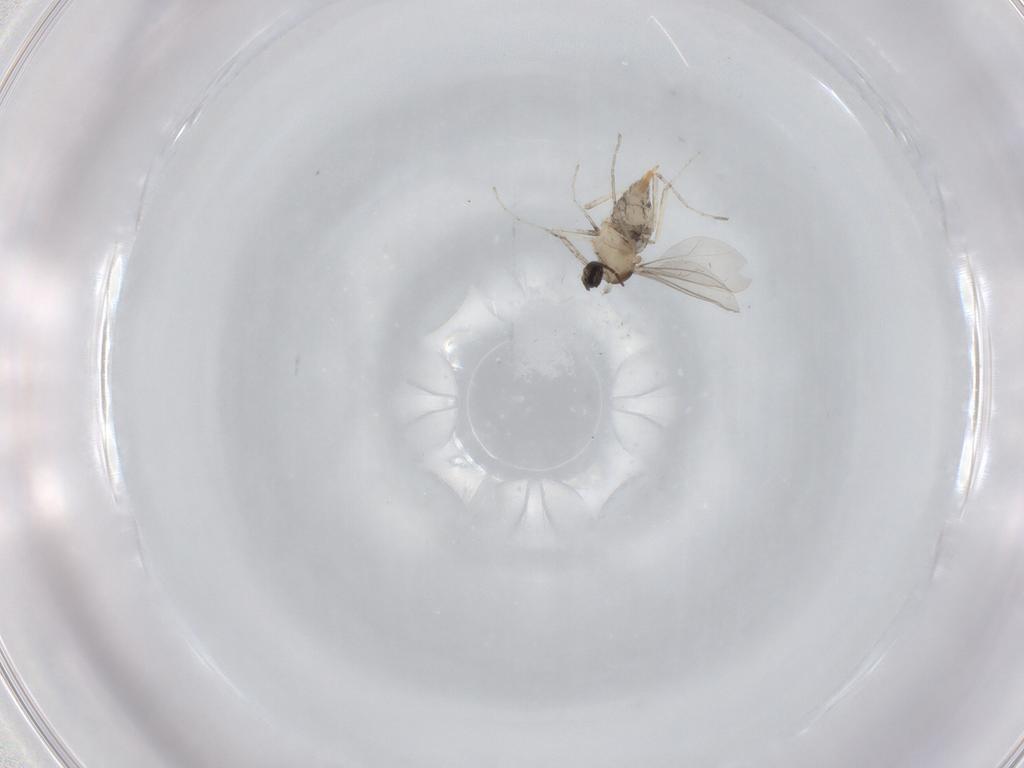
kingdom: Animalia
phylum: Arthropoda
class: Insecta
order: Diptera
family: Cecidomyiidae
